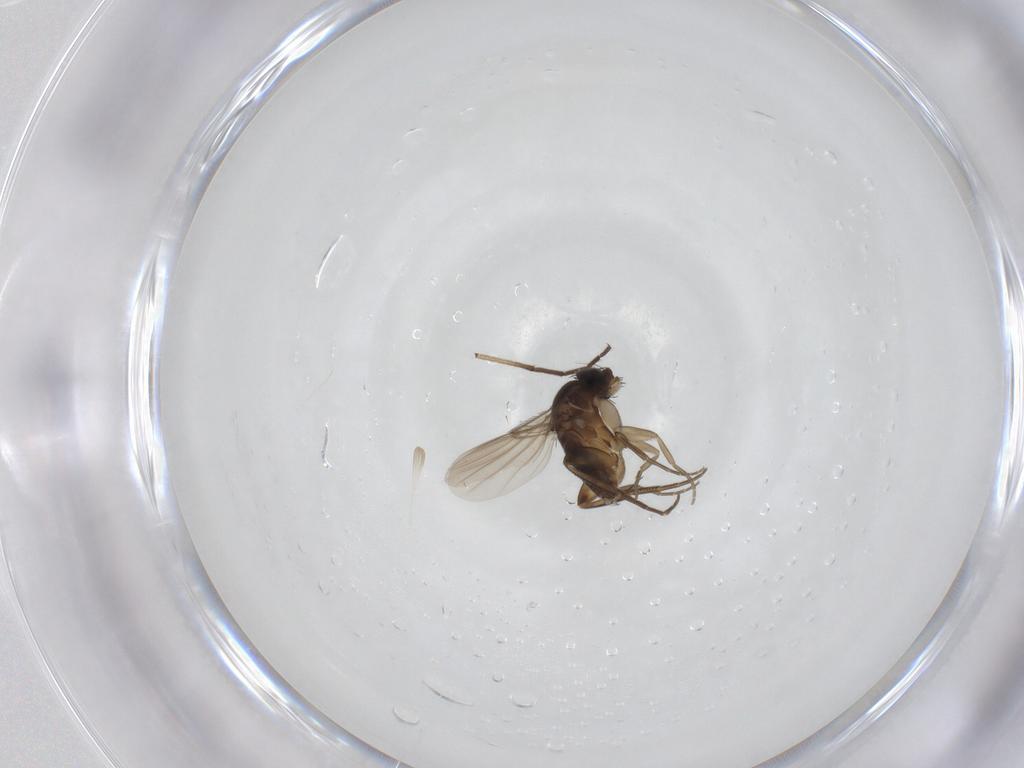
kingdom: Animalia
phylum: Arthropoda
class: Insecta
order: Diptera
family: Phoridae
